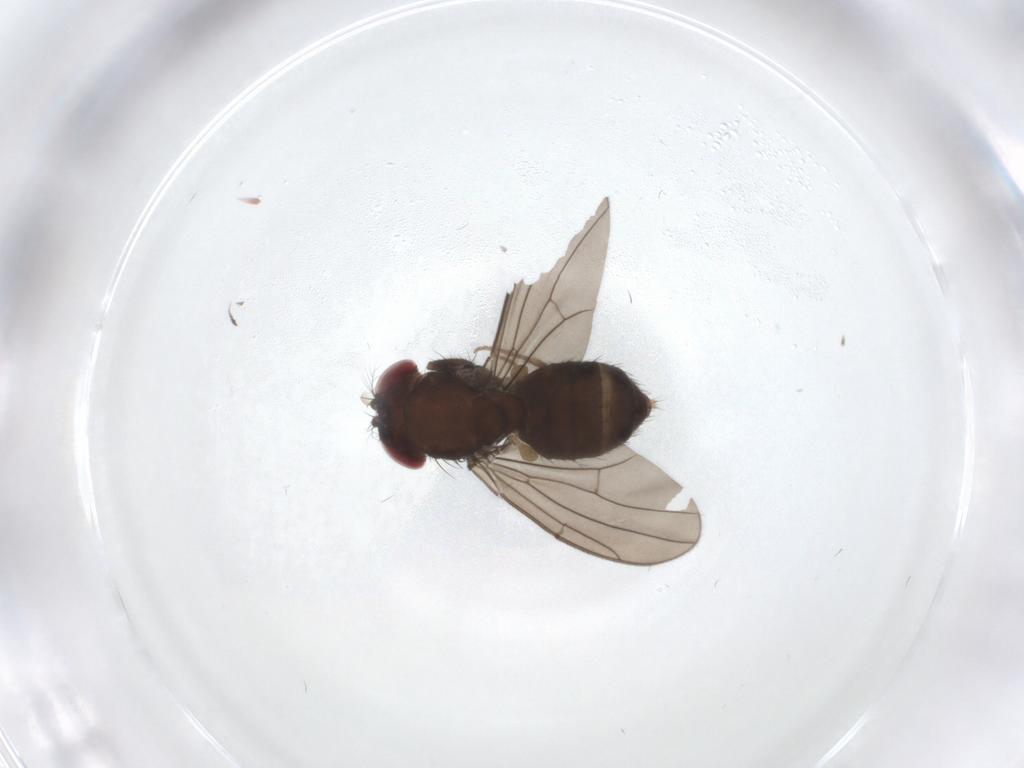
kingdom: Animalia
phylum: Arthropoda
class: Insecta
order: Diptera
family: Drosophilidae
